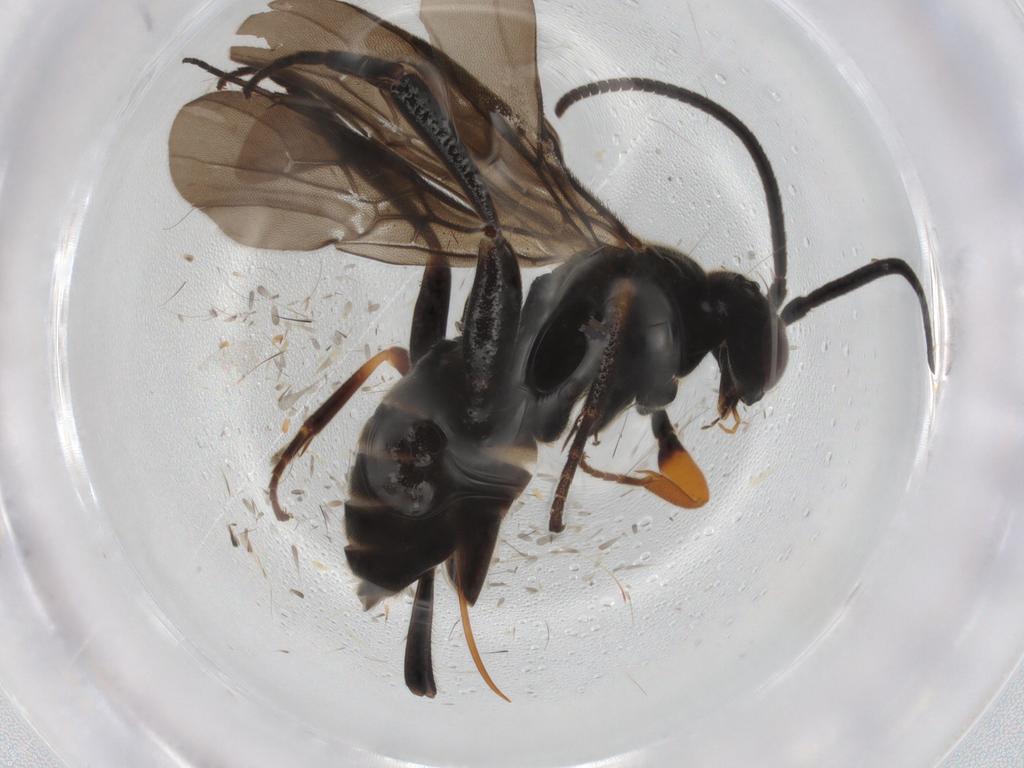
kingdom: Animalia
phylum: Arthropoda
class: Insecta
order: Hymenoptera
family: Braconidae
